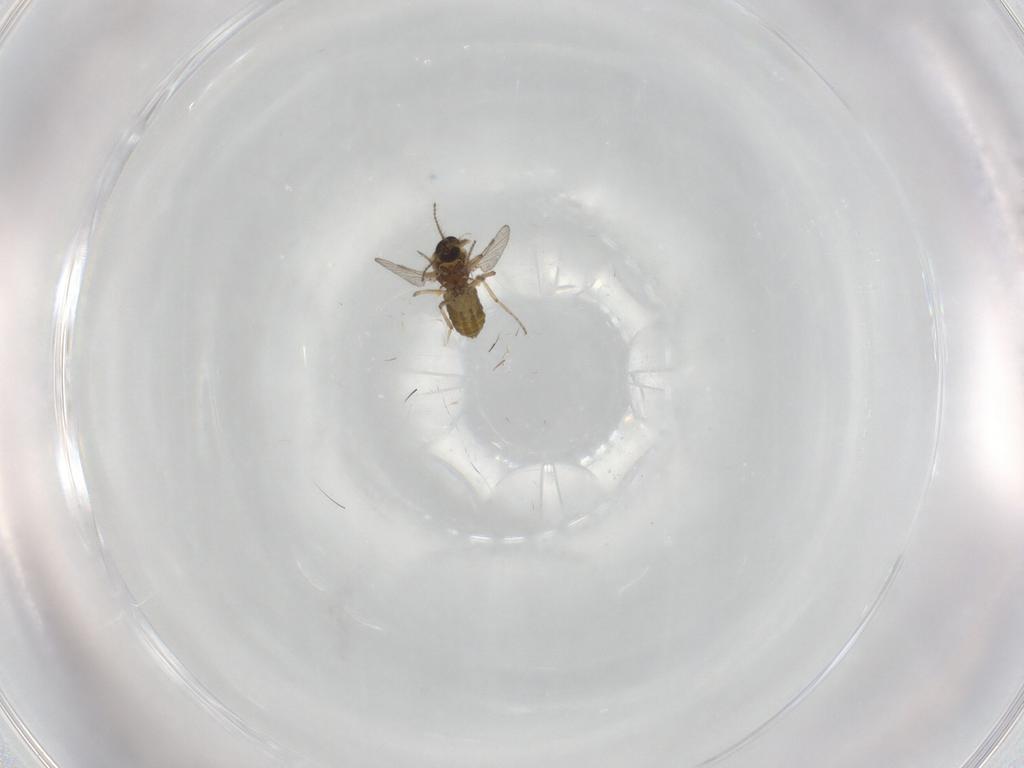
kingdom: Animalia
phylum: Arthropoda
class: Insecta
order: Diptera
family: Ceratopogonidae
